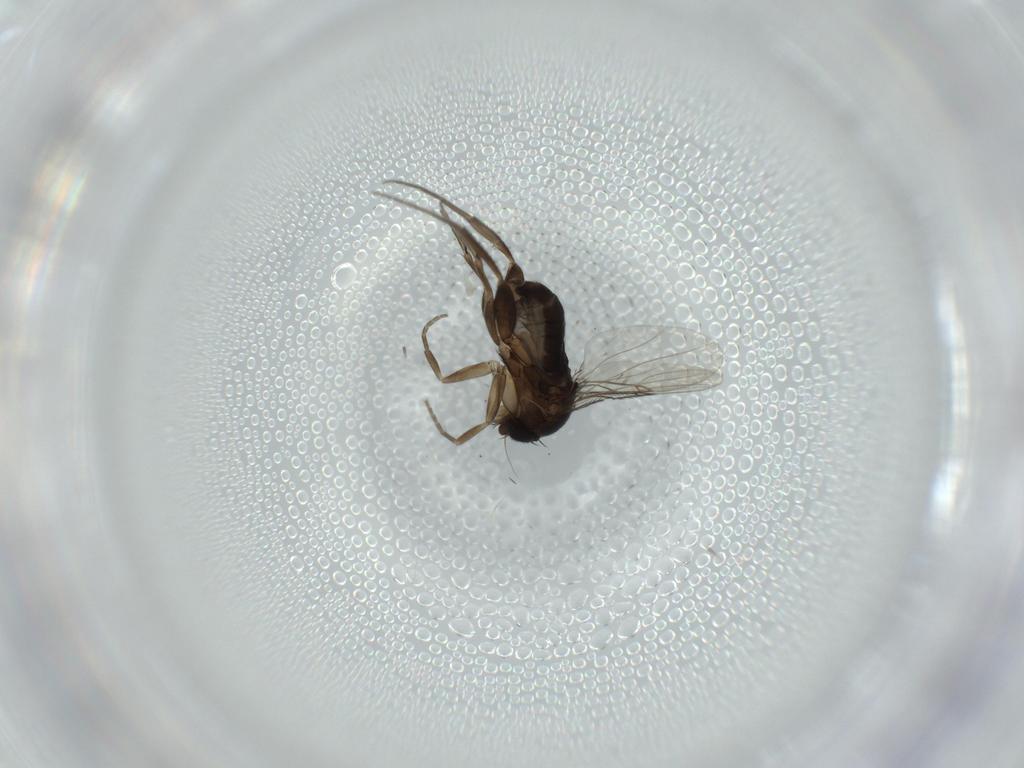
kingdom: Animalia
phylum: Arthropoda
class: Insecta
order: Diptera
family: Phoridae
